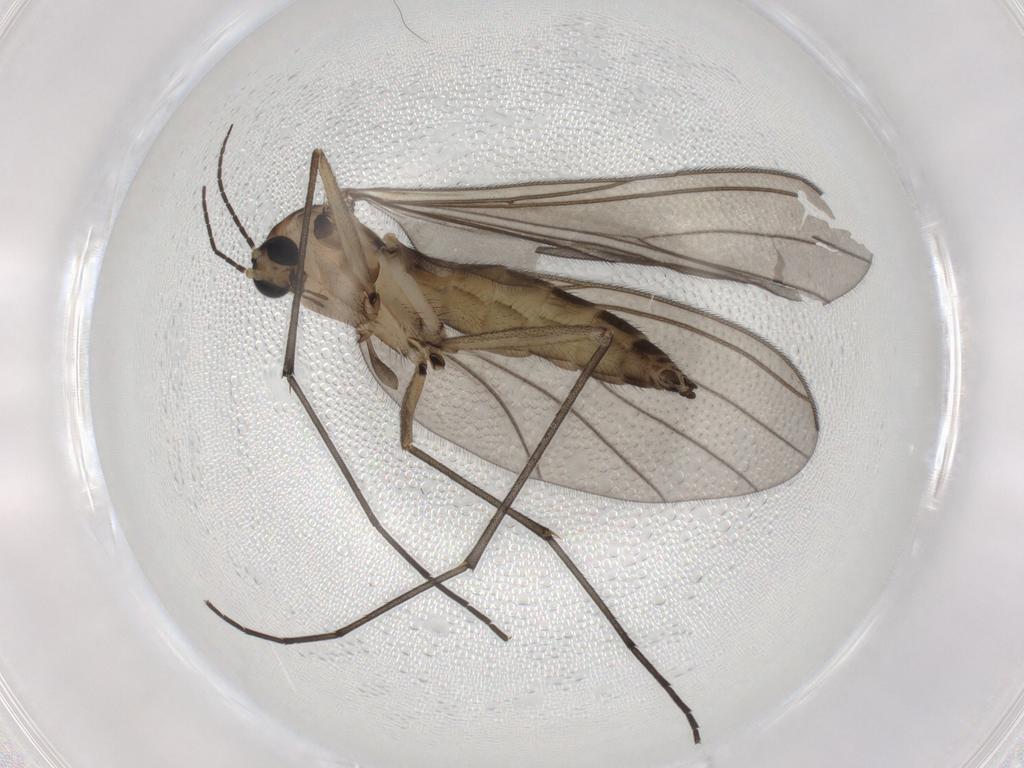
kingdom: Animalia
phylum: Arthropoda
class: Insecta
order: Diptera
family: Sciaridae
